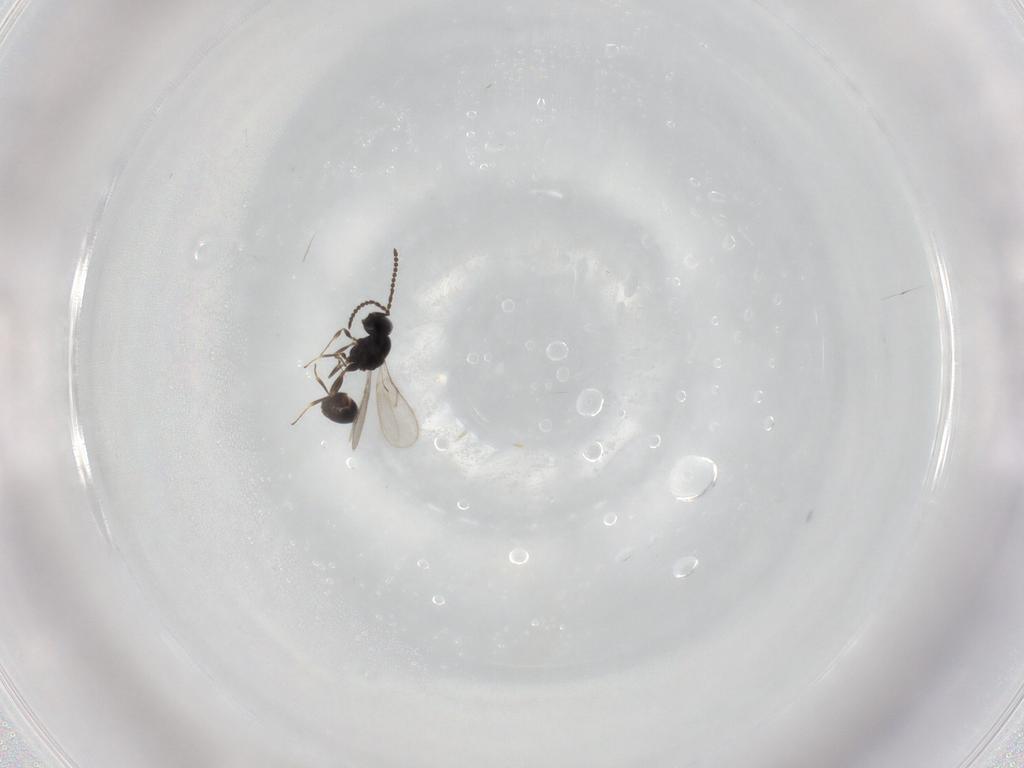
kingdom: Animalia
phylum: Arthropoda
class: Insecta
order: Hymenoptera
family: Scelionidae
